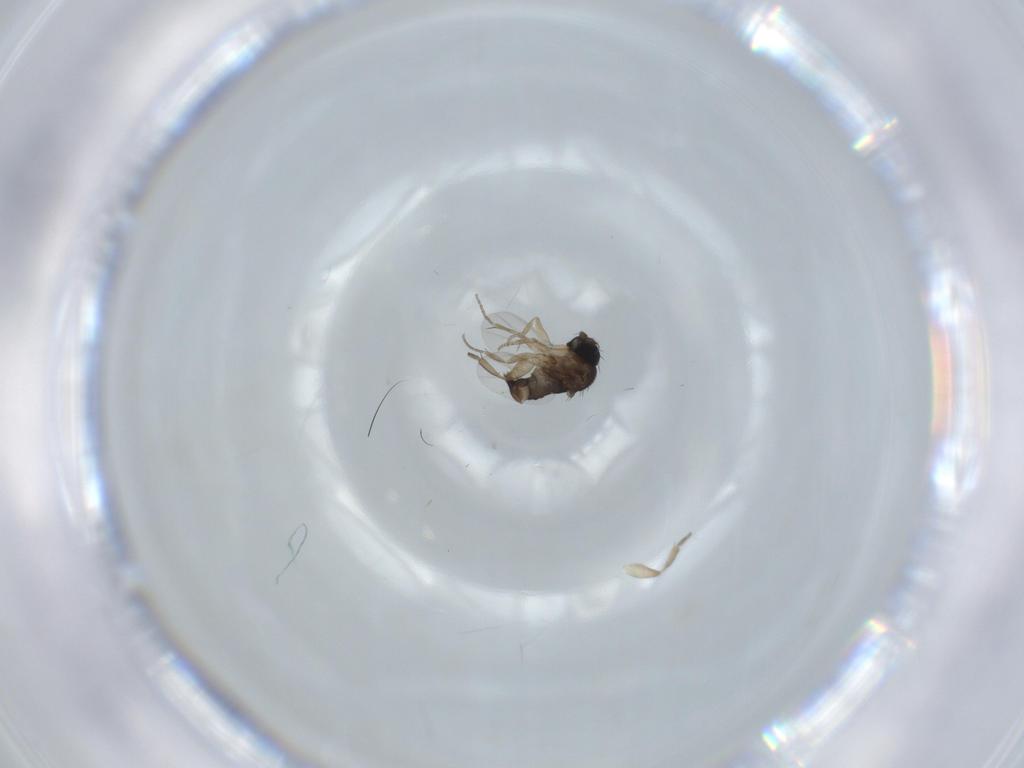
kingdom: Animalia
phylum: Arthropoda
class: Insecta
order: Diptera
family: Phoridae
